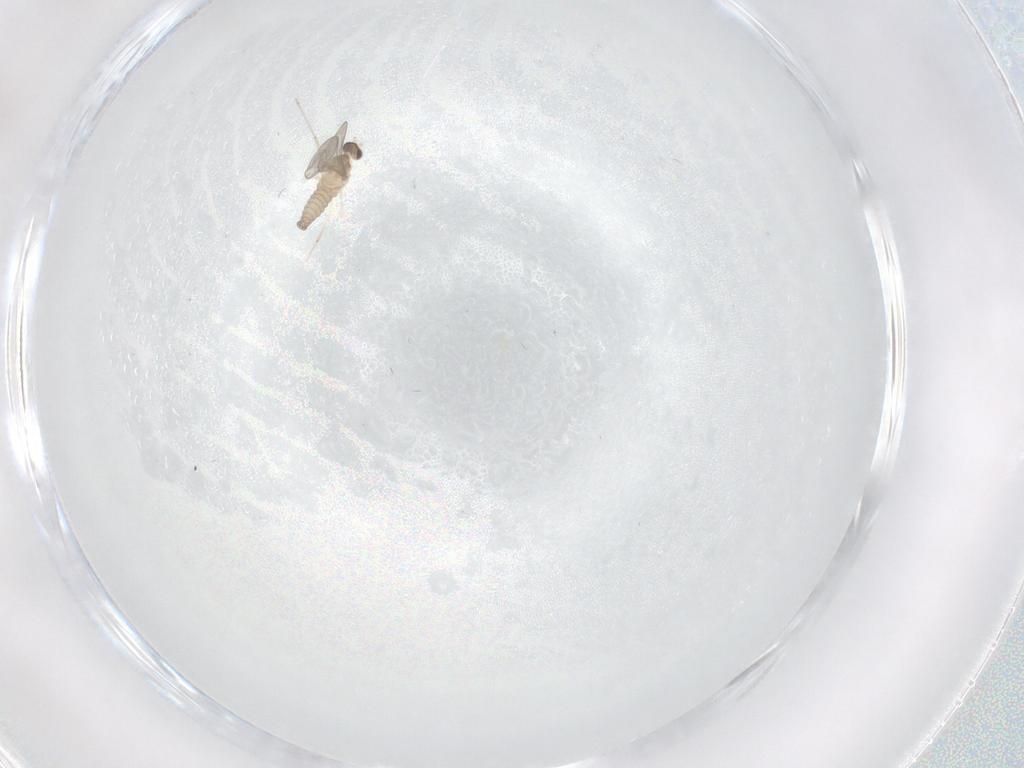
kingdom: Animalia
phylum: Arthropoda
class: Insecta
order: Diptera
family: Cecidomyiidae
